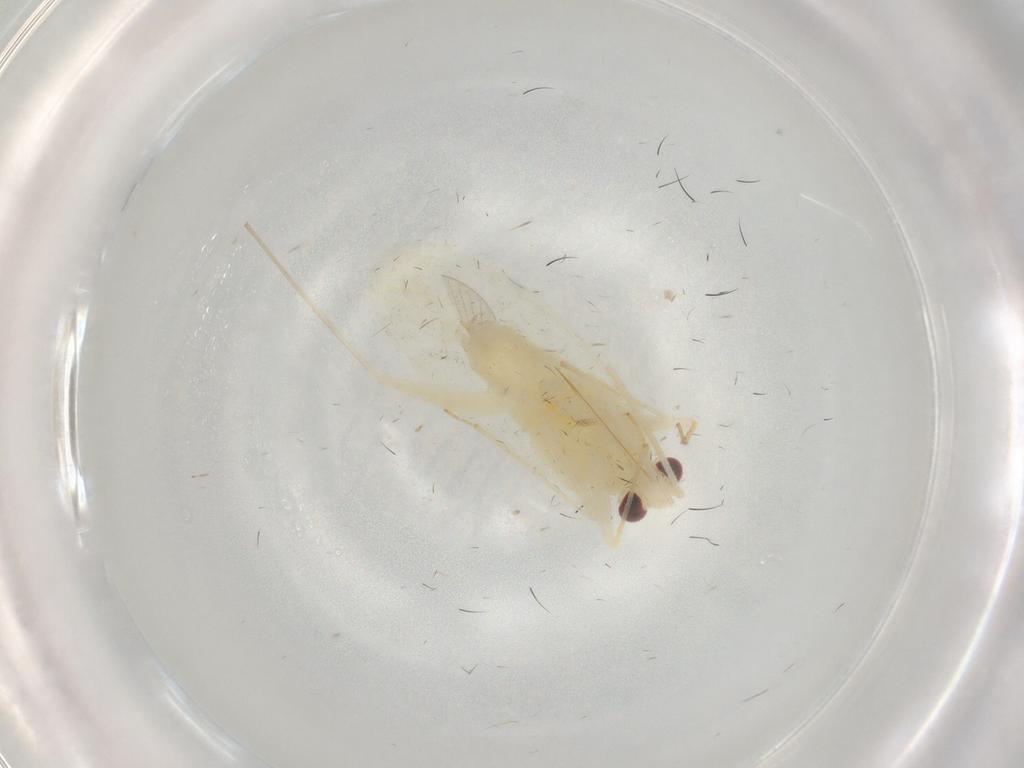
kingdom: Animalia
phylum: Arthropoda
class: Insecta
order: Hemiptera
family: Miridae
